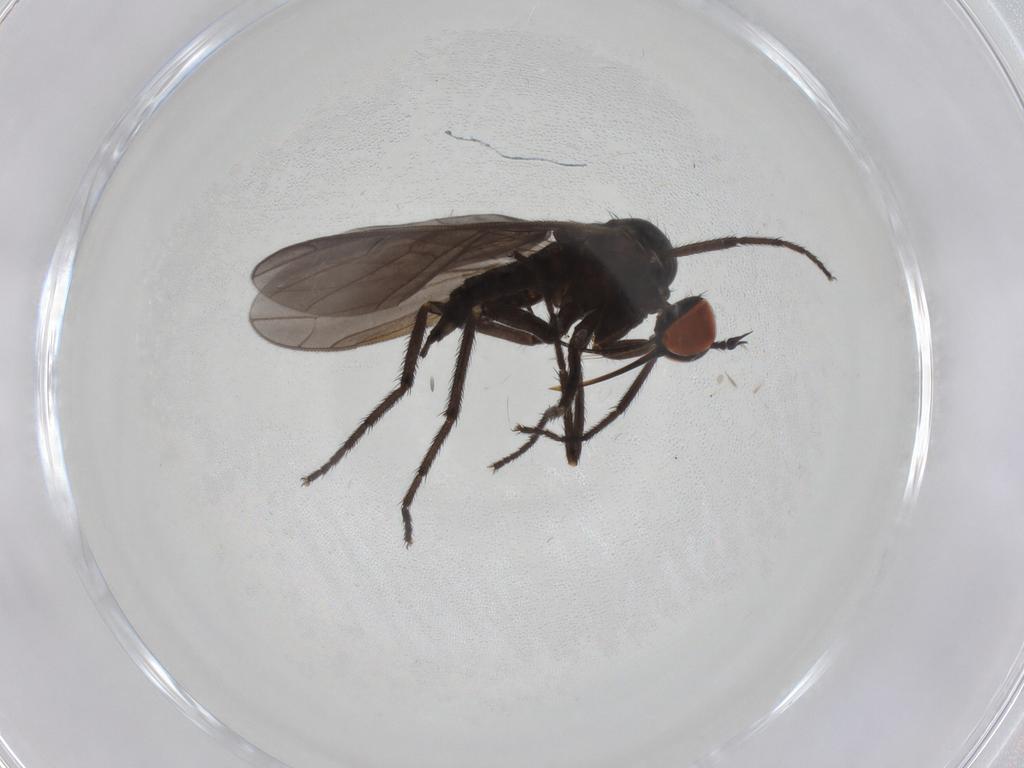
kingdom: Animalia
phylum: Arthropoda
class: Insecta
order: Diptera
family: Empididae
